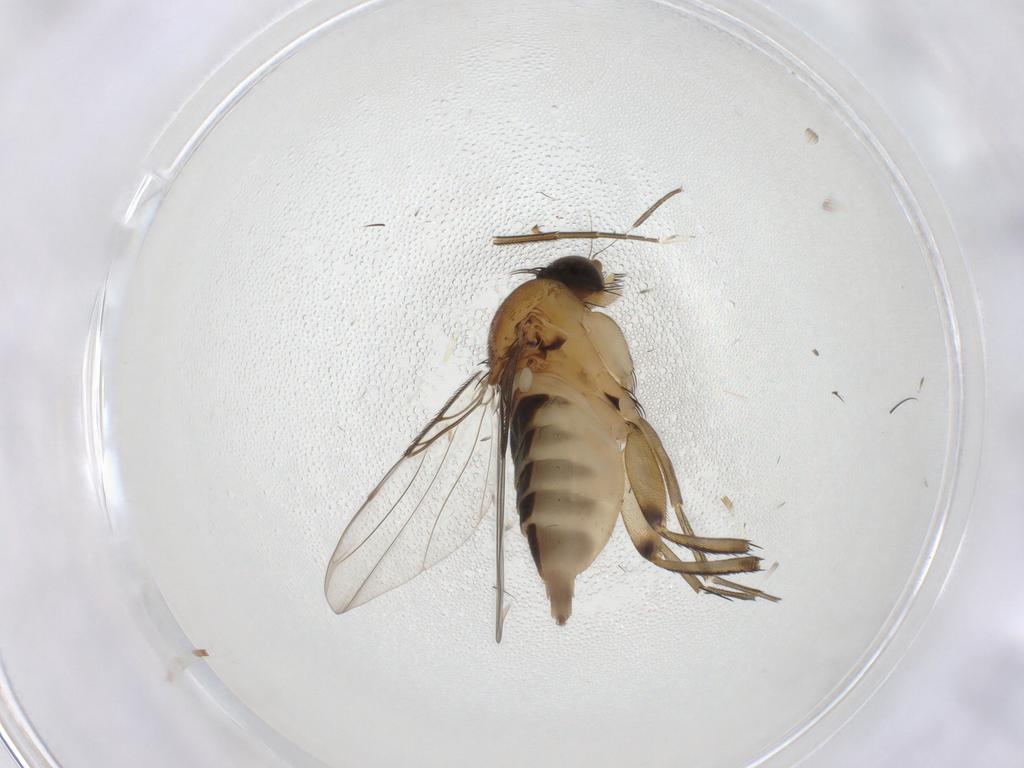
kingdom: Animalia
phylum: Arthropoda
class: Insecta
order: Diptera
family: Phoridae
